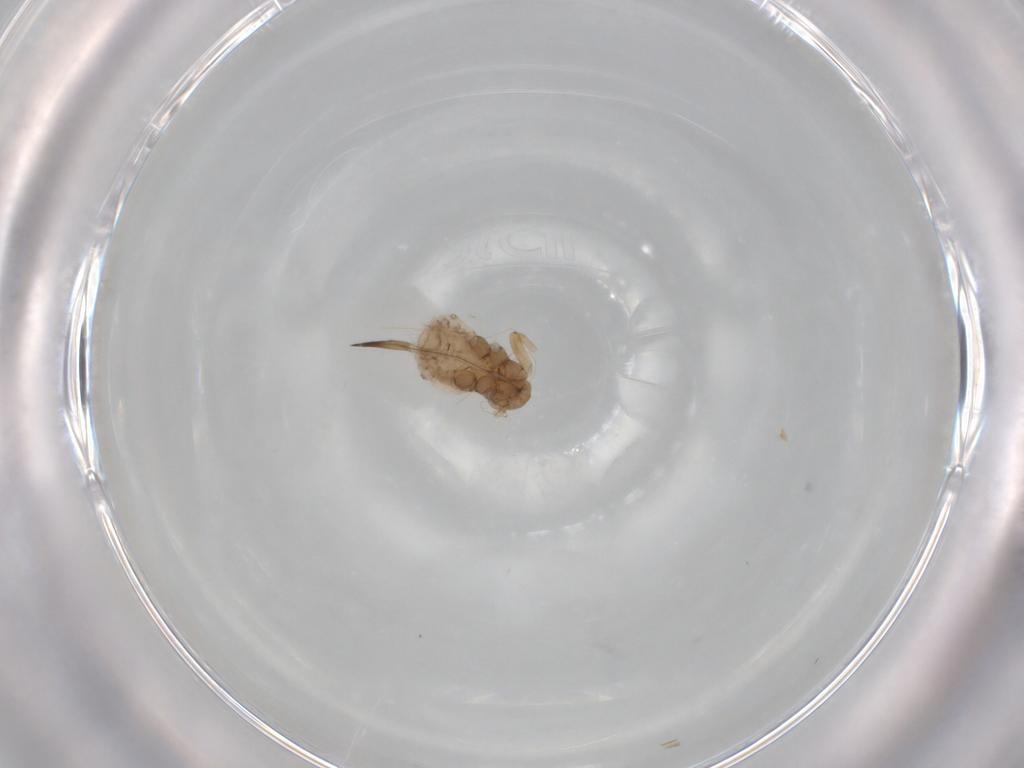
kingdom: Animalia
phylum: Arthropoda
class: Insecta
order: Hemiptera
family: Aphididae
